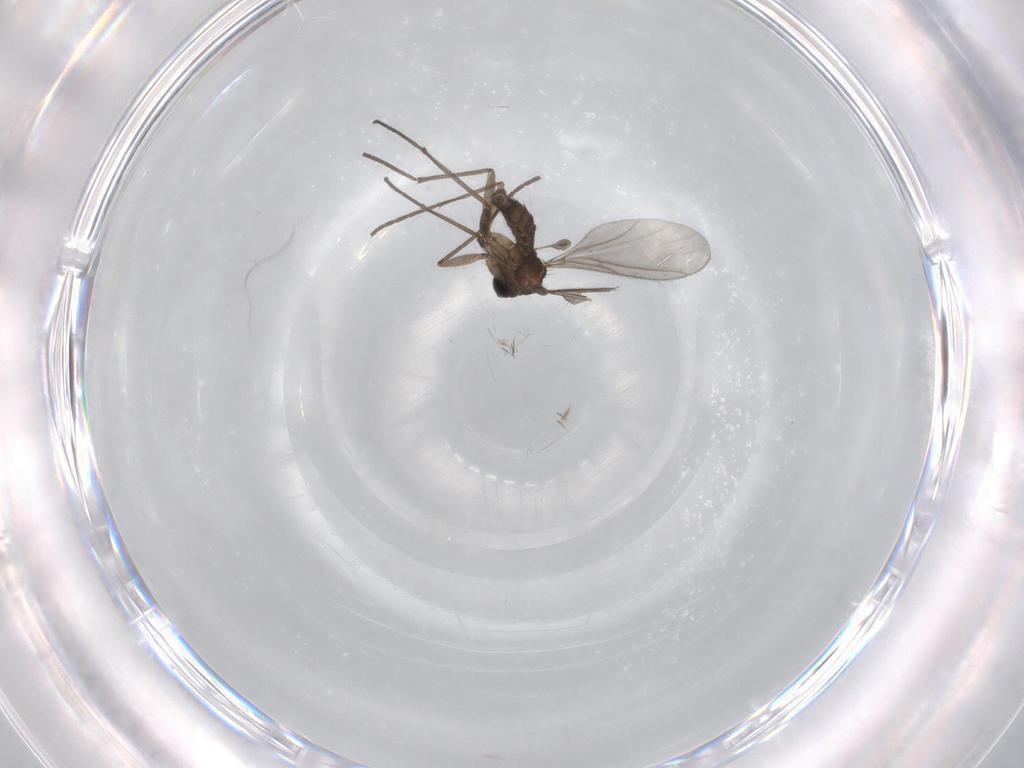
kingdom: Animalia
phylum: Arthropoda
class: Insecta
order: Diptera
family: Sciaridae
